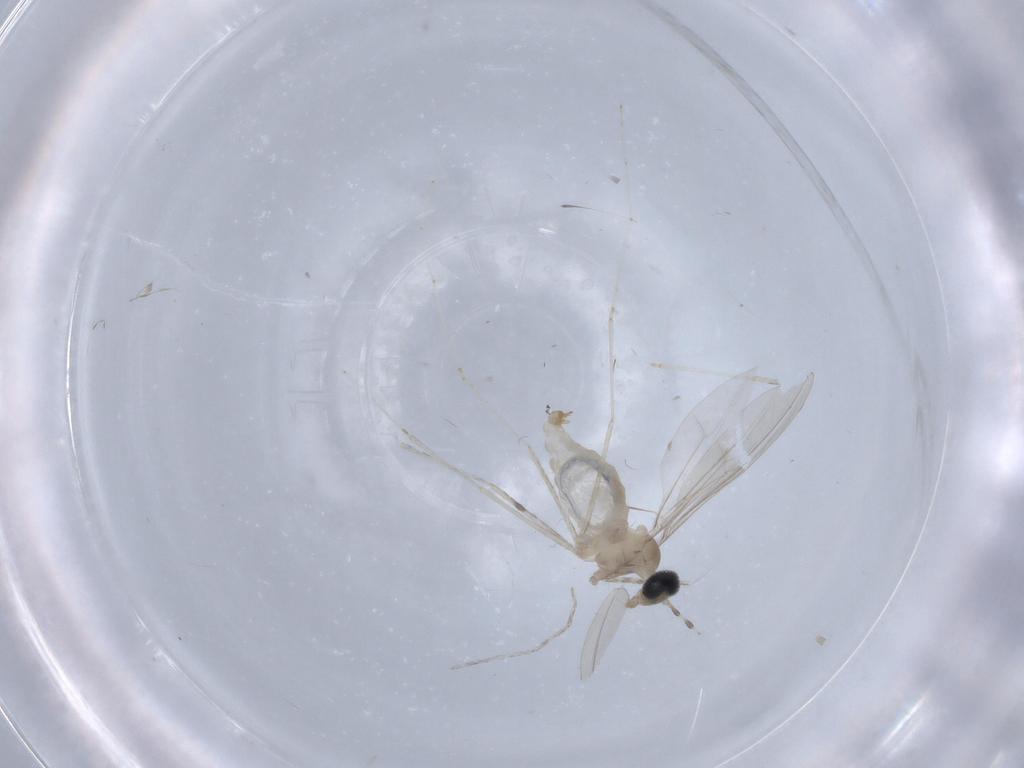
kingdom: Animalia
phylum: Arthropoda
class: Insecta
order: Diptera
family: Cecidomyiidae
